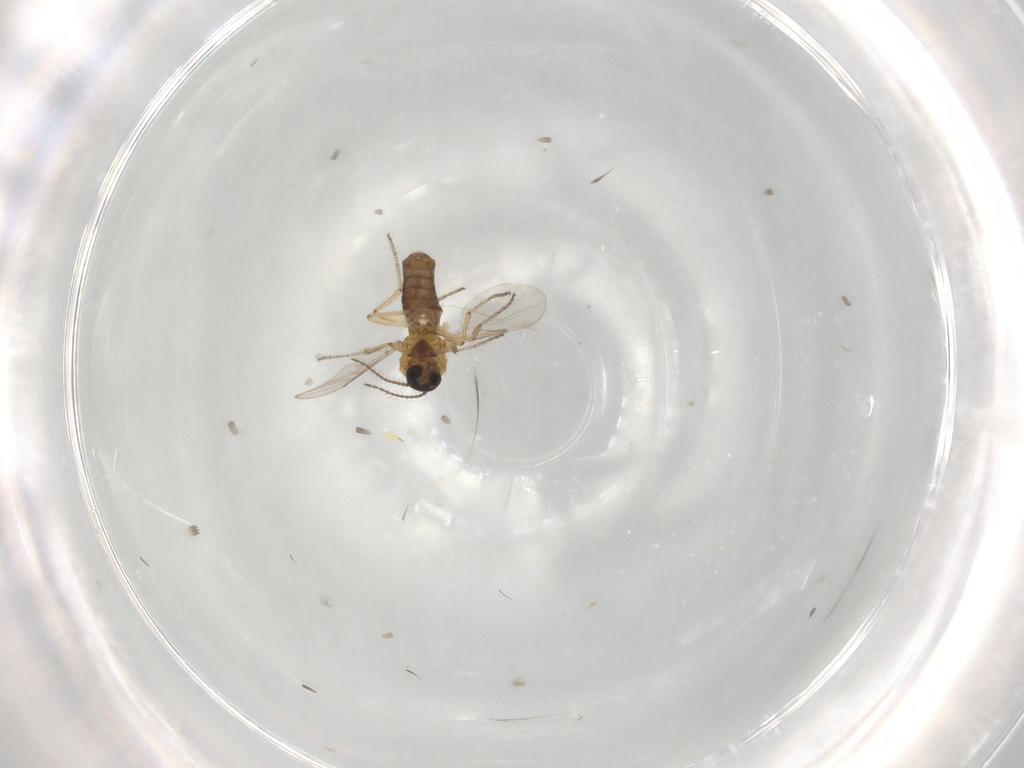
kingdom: Animalia
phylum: Arthropoda
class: Insecta
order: Diptera
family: Ceratopogonidae
